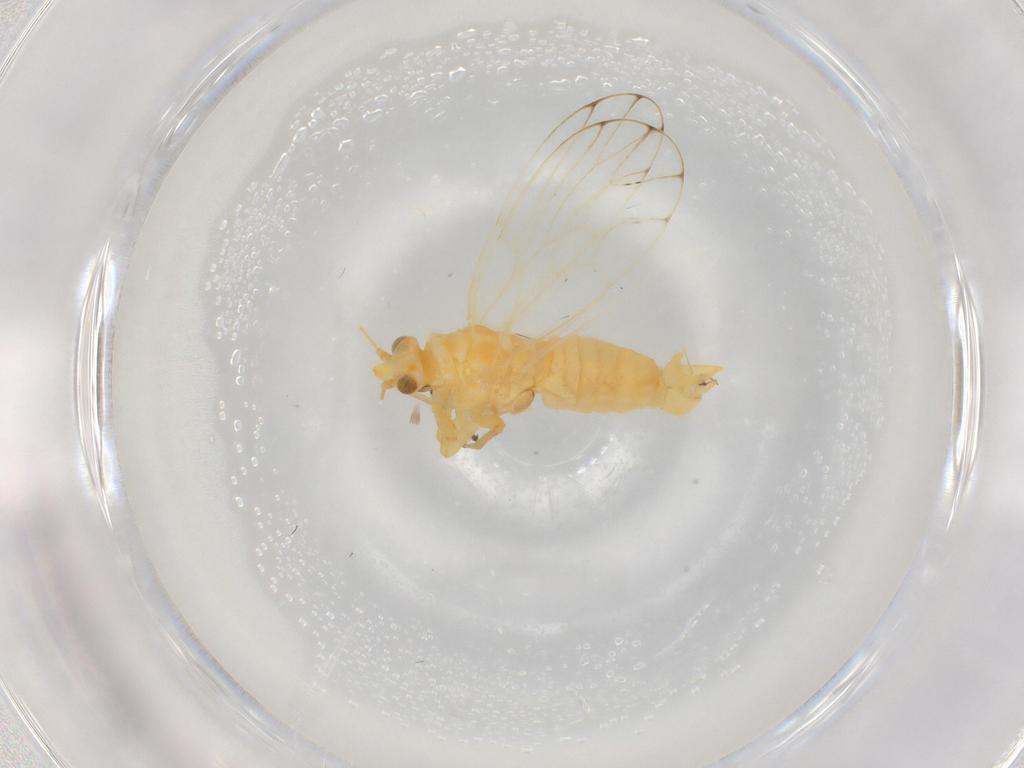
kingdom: Animalia
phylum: Arthropoda
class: Insecta
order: Hemiptera
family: Aphalaridae
